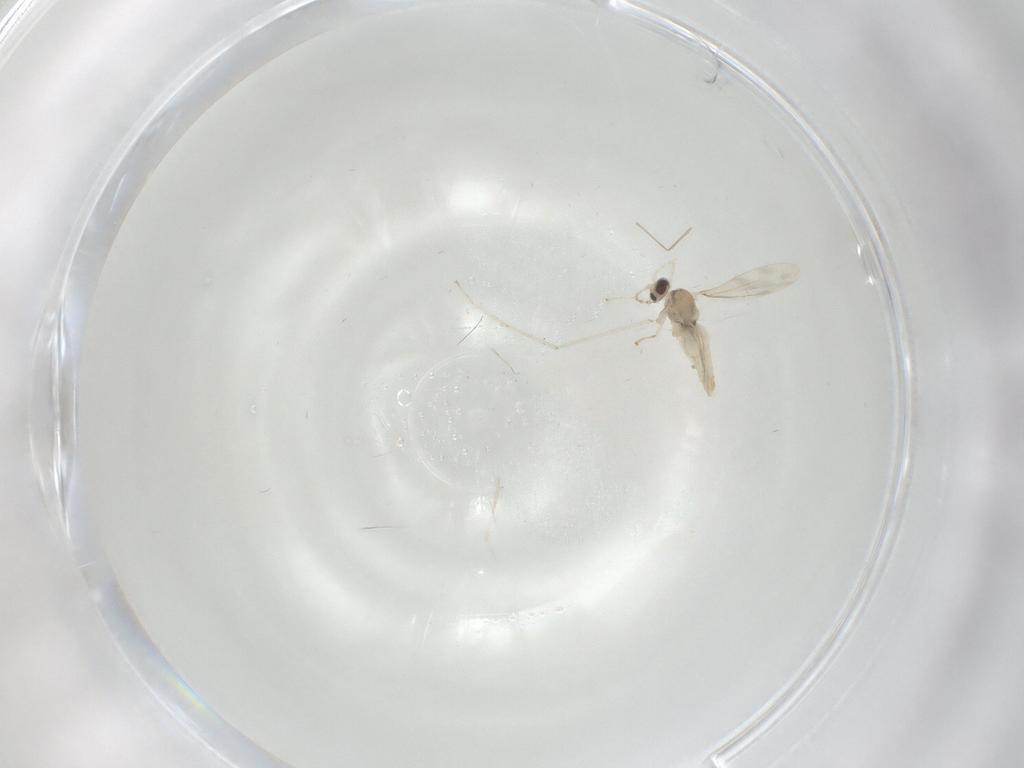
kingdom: Animalia
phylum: Arthropoda
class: Insecta
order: Diptera
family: Cecidomyiidae
